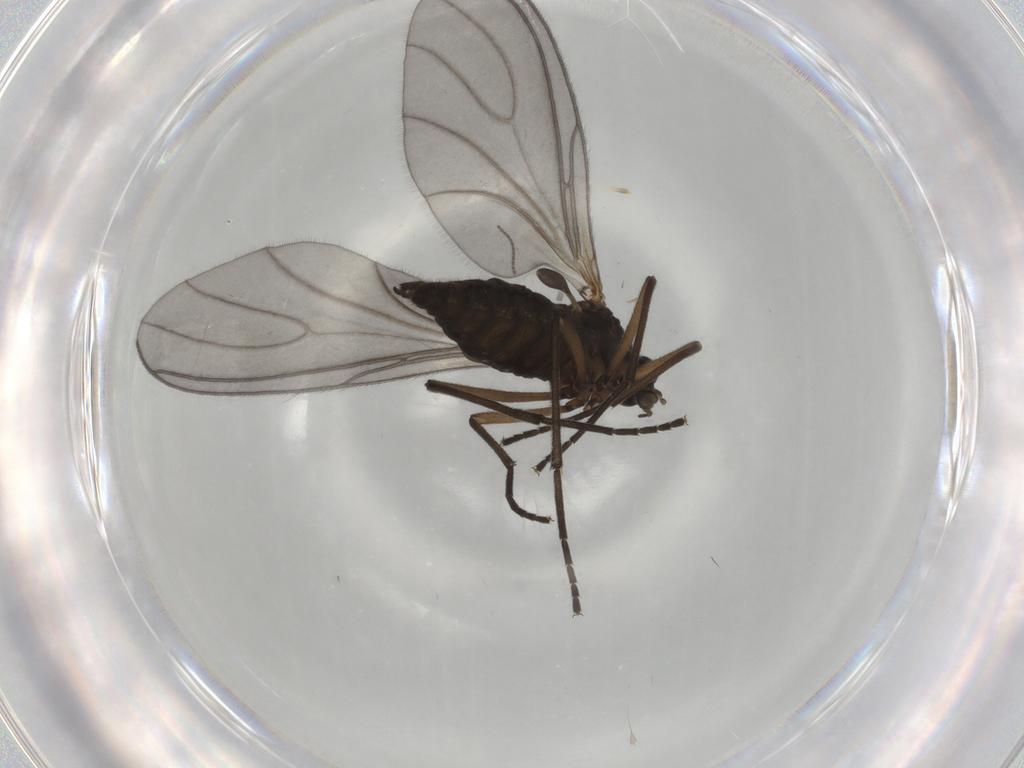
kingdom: Animalia
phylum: Arthropoda
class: Insecta
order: Diptera
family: Sciaridae
